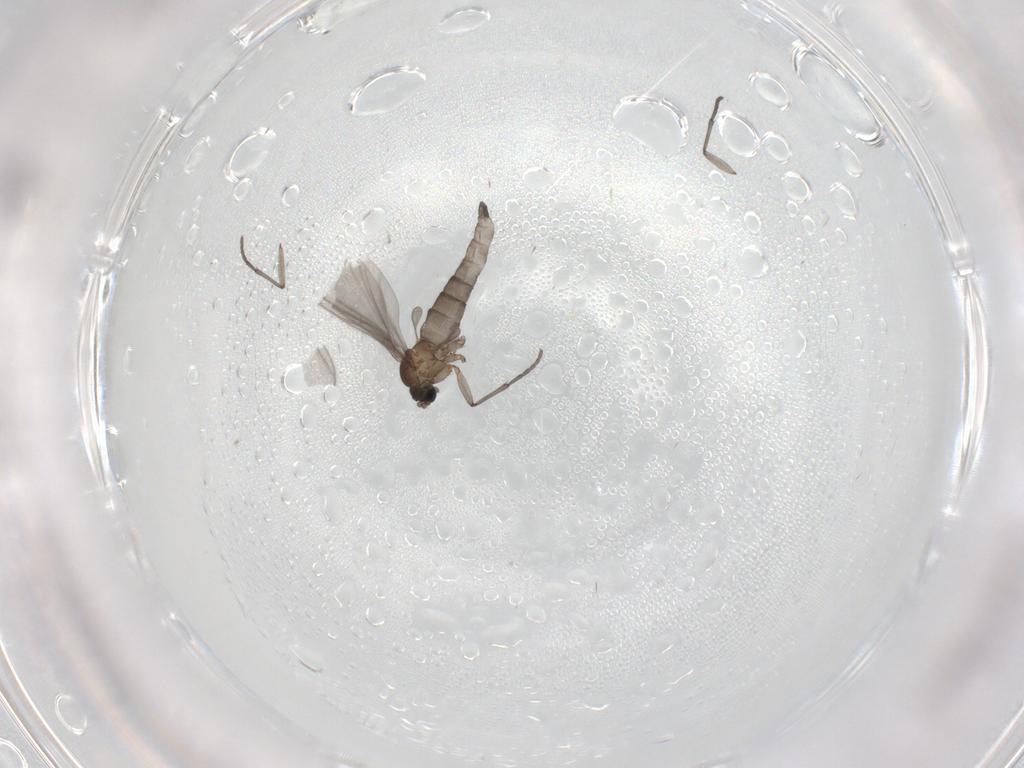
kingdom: Animalia
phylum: Arthropoda
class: Insecta
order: Diptera
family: Sciaridae
